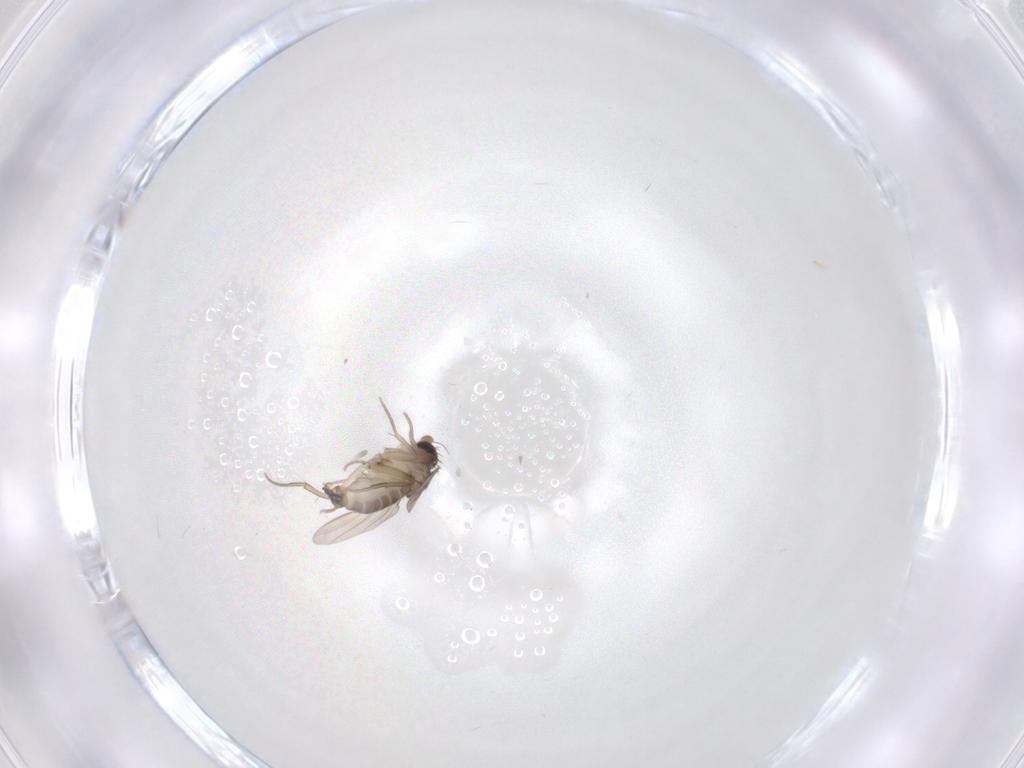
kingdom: Animalia
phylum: Arthropoda
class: Insecta
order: Diptera
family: Phoridae
